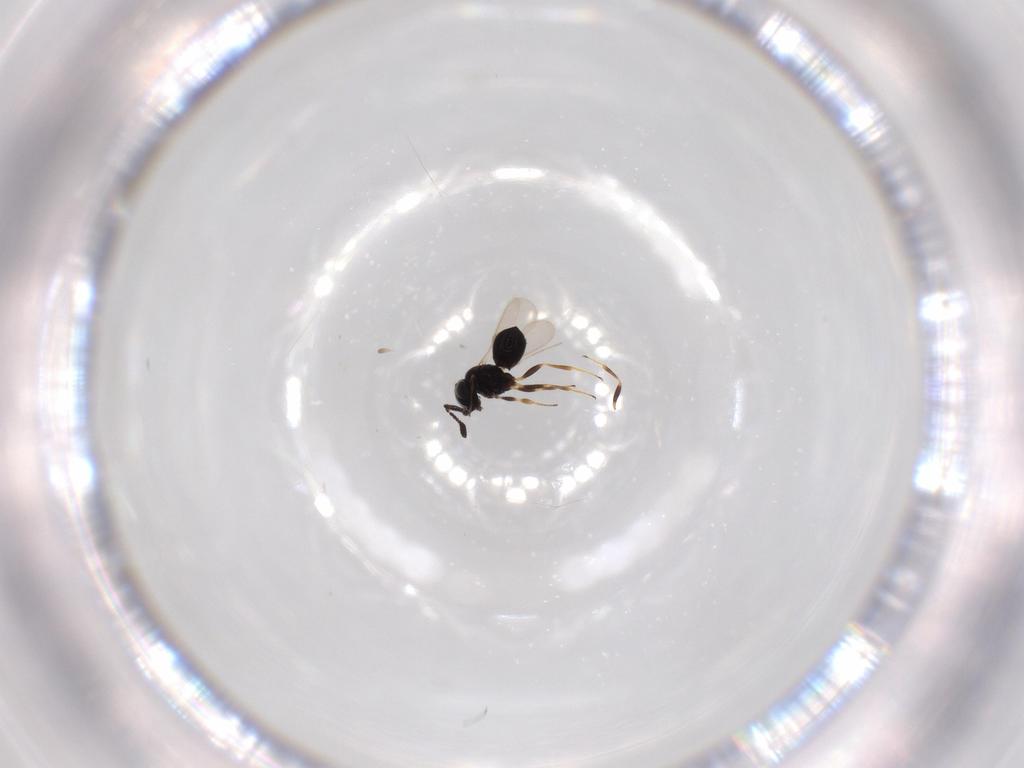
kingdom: Animalia
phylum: Arthropoda
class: Insecta
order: Hymenoptera
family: Scelionidae
